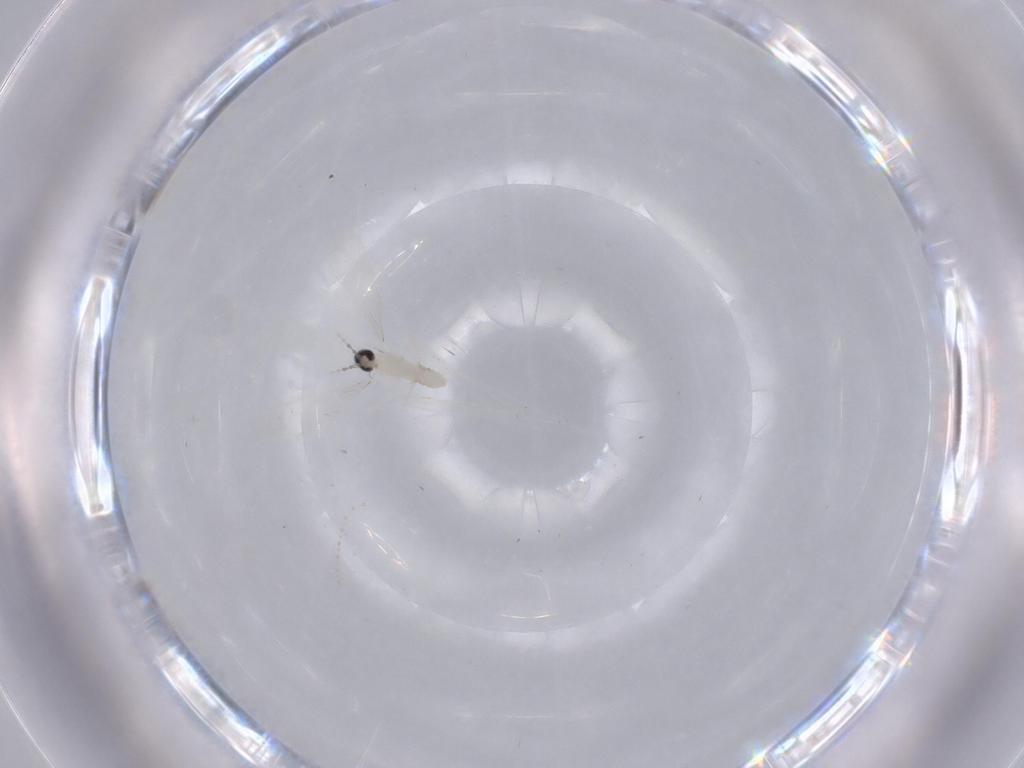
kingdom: Animalia
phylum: Arthropoda
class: Insecta
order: Diptera
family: Cecidomyiidae
